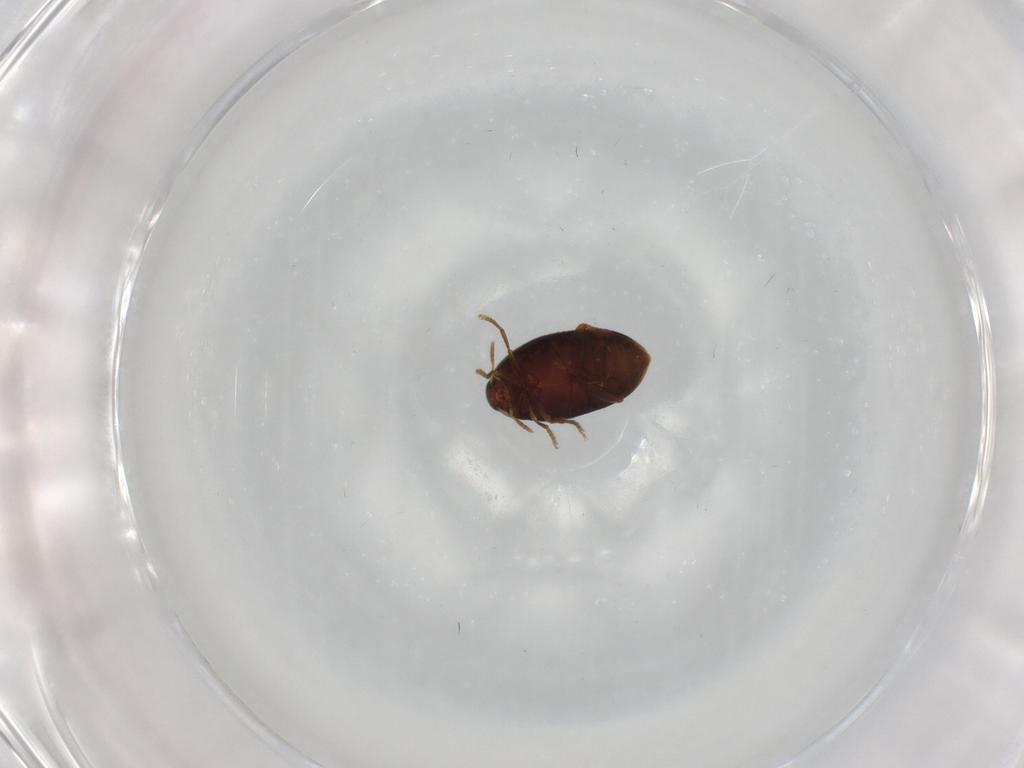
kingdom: Animalia
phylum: Arthropoda
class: Insecta
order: Coleoptera
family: Melandryidae
